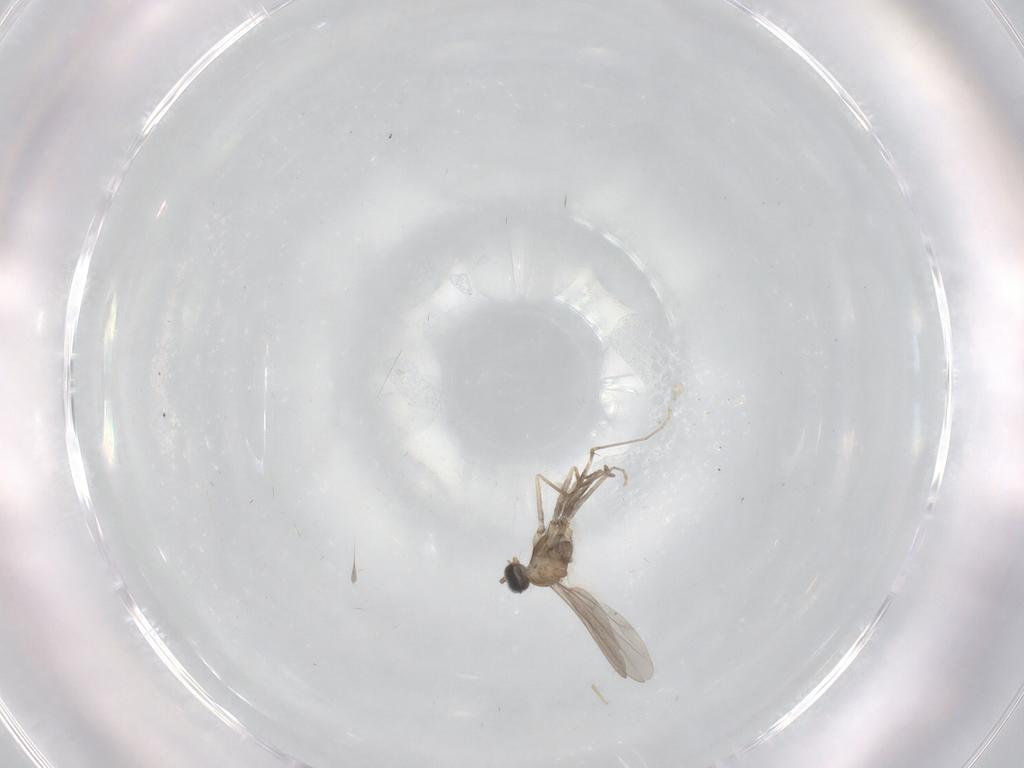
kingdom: Animalia
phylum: Arthropoda
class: Insecta
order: Diptera
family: Cecidomyiidae
